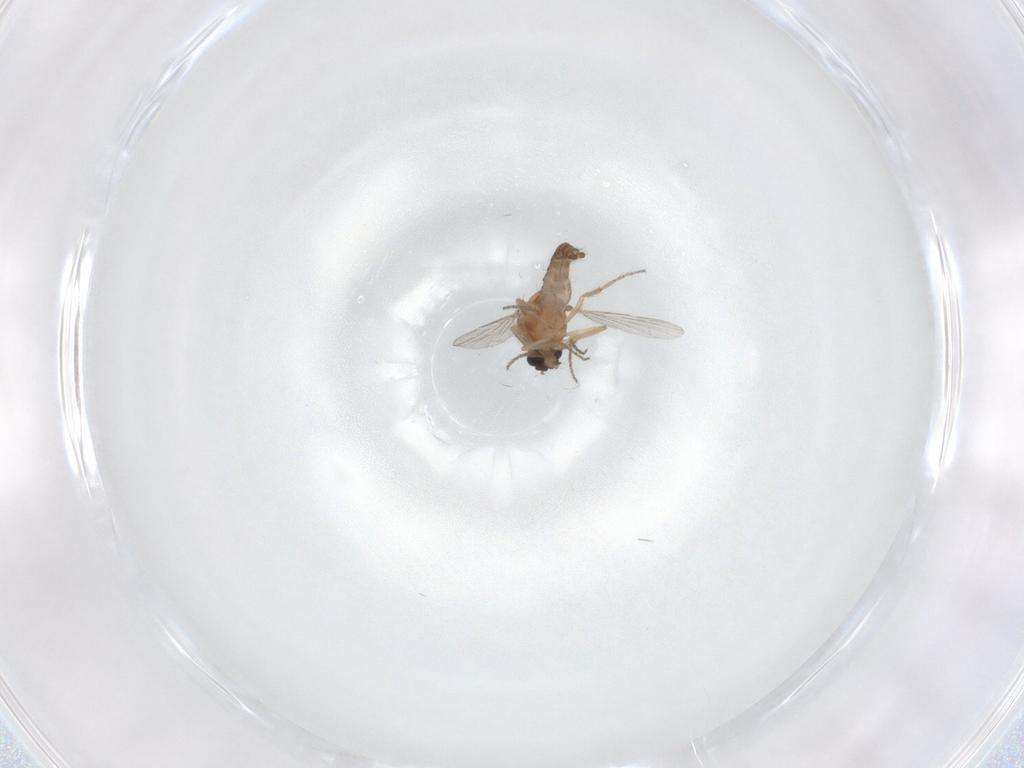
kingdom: Animalia
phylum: Arthropoda
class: Insecta
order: Diptera
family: Ceratopogonidae
